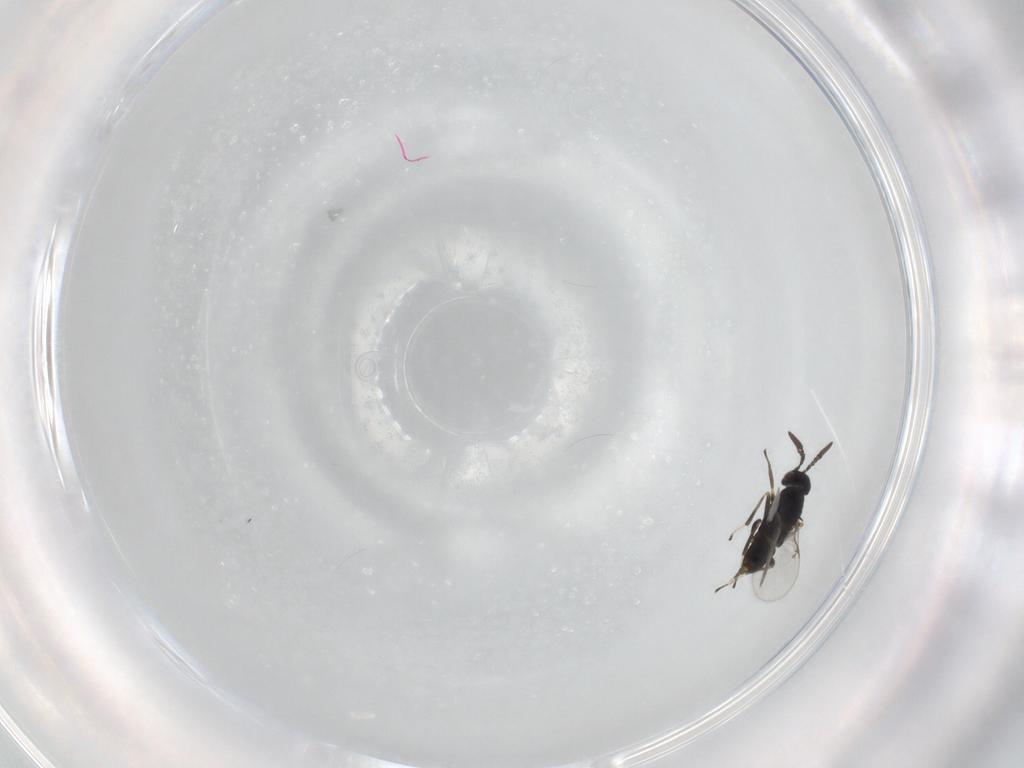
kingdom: Animalia
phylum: Arthropoda
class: Insecta
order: Hymenoptera
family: Encyrtidae
